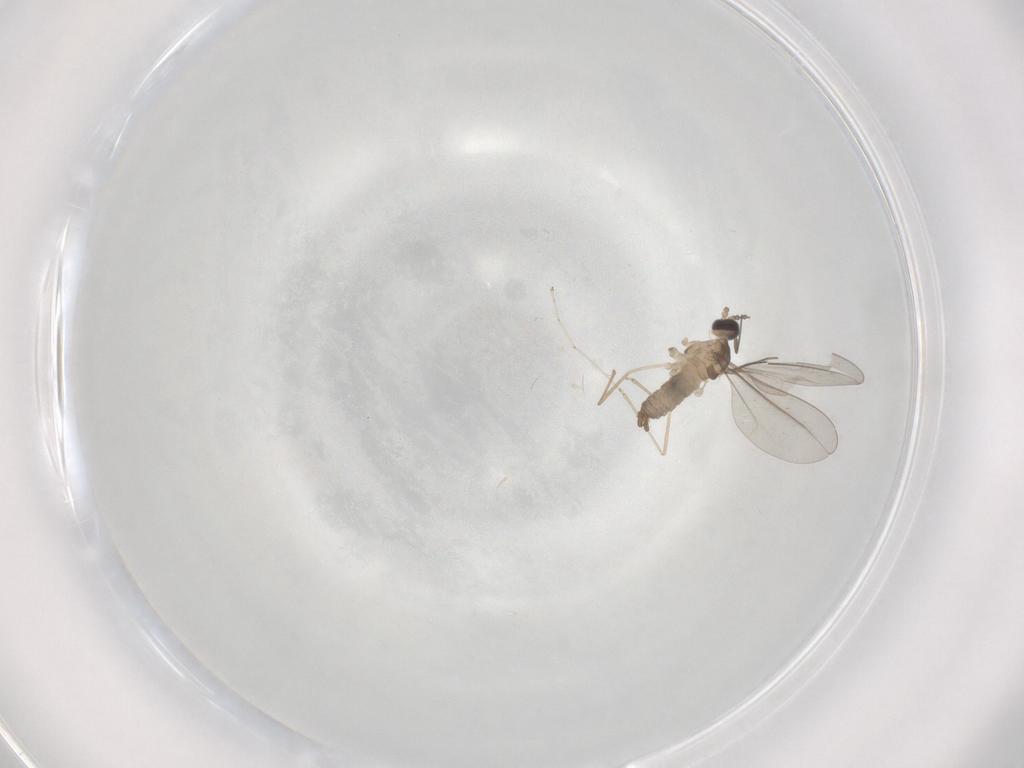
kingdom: Animalia
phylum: Arthropoda
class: Insecta
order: Diptera
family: Cecidomyiidae
